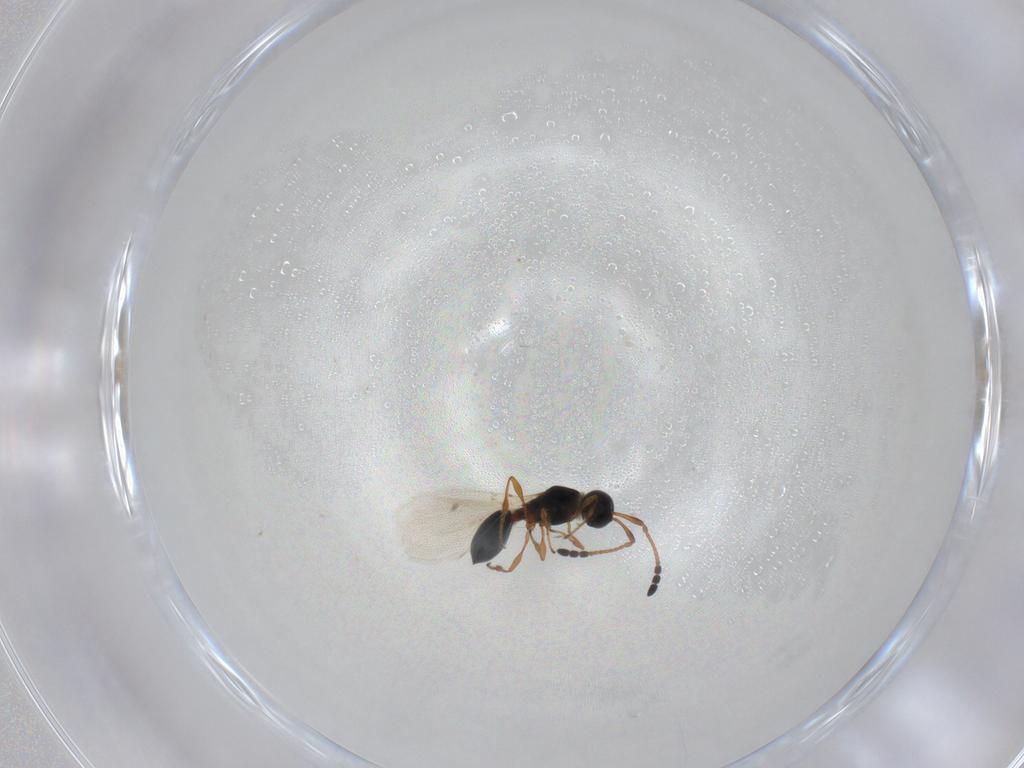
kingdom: Animalia
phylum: Arthropoda
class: Insecta
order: Hymenoptera
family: Diapriidae
